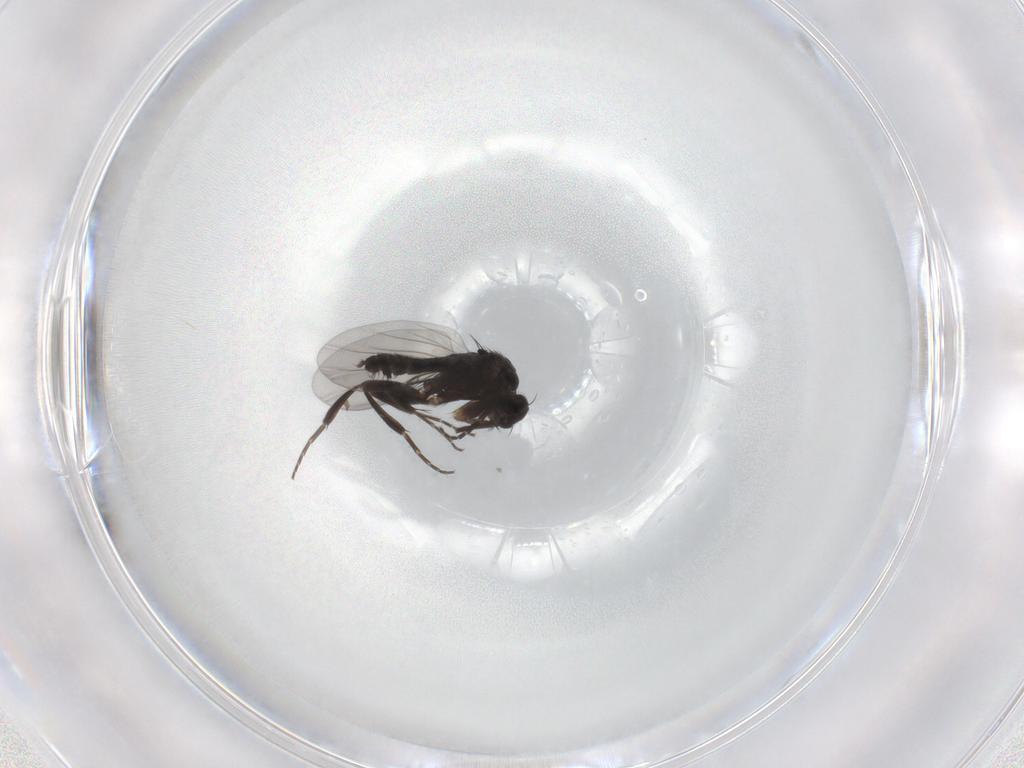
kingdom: Animalia
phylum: Arthropoda
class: Insecta
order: Diptera
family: Phoridae
